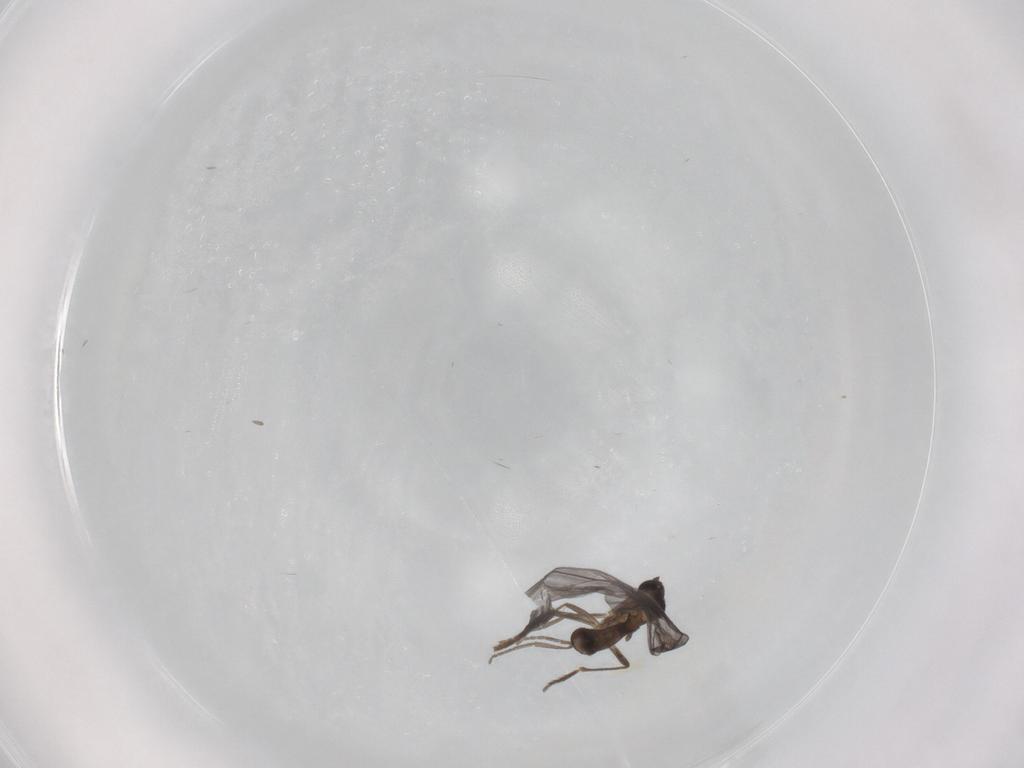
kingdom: Animalia
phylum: Arthropoda
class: Insecta
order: Diptera
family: Phoridae
